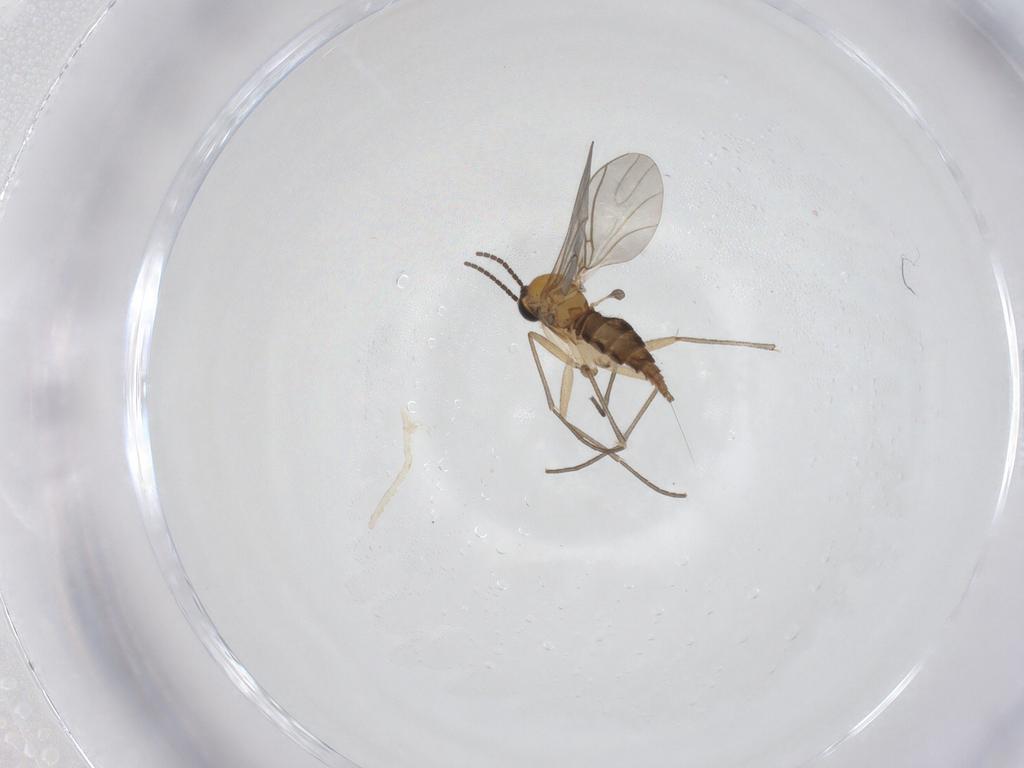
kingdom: Animalia
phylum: Arthropoda
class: Insecta
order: Diptera
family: Sciaridae
